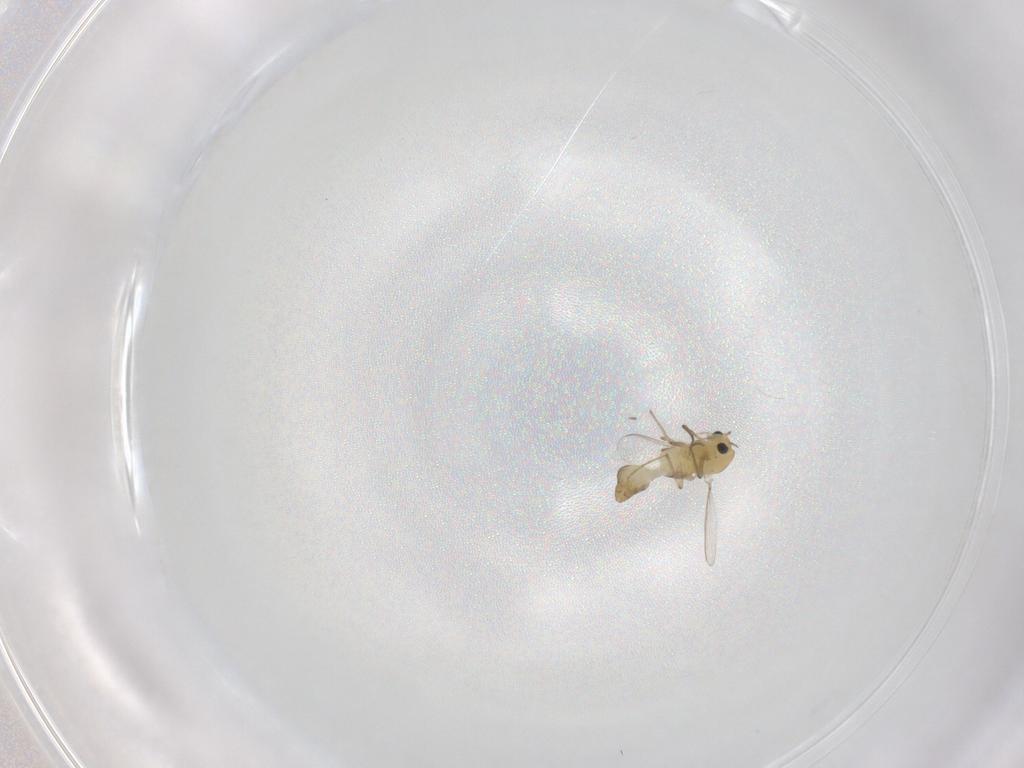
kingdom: Animalia
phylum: Arthropoda
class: Insecta
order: Diptera
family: Chironomidae
